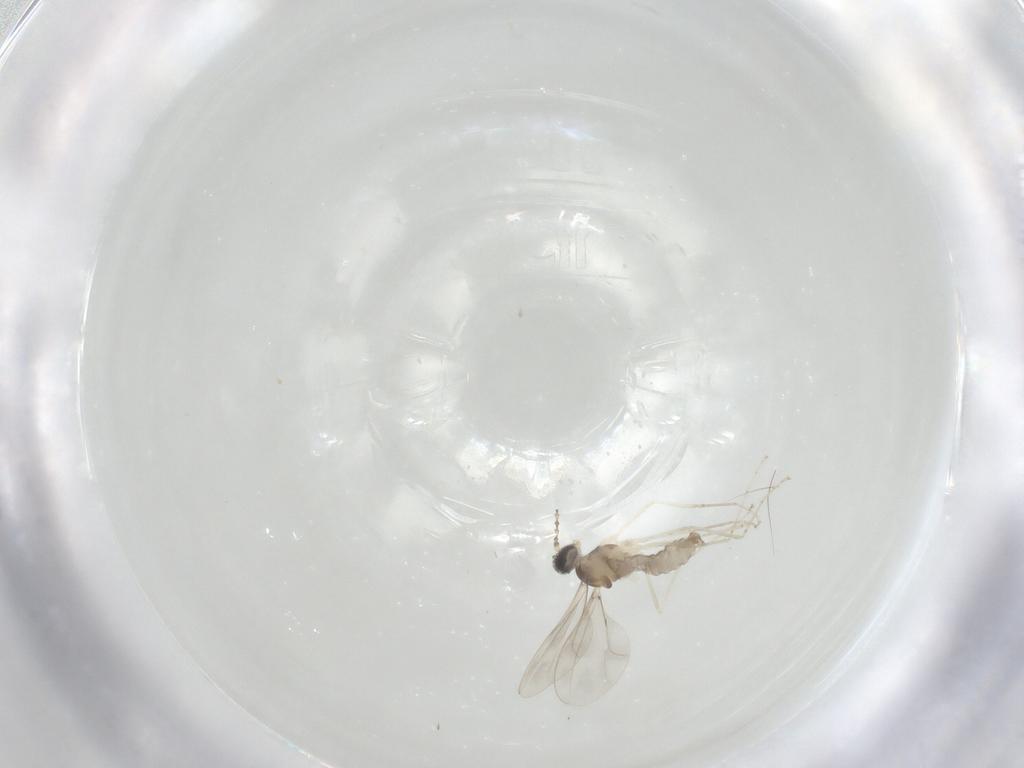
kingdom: Animalia
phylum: Arthropoda
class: Insecta
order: Diptera
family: Cecidomyiidae
